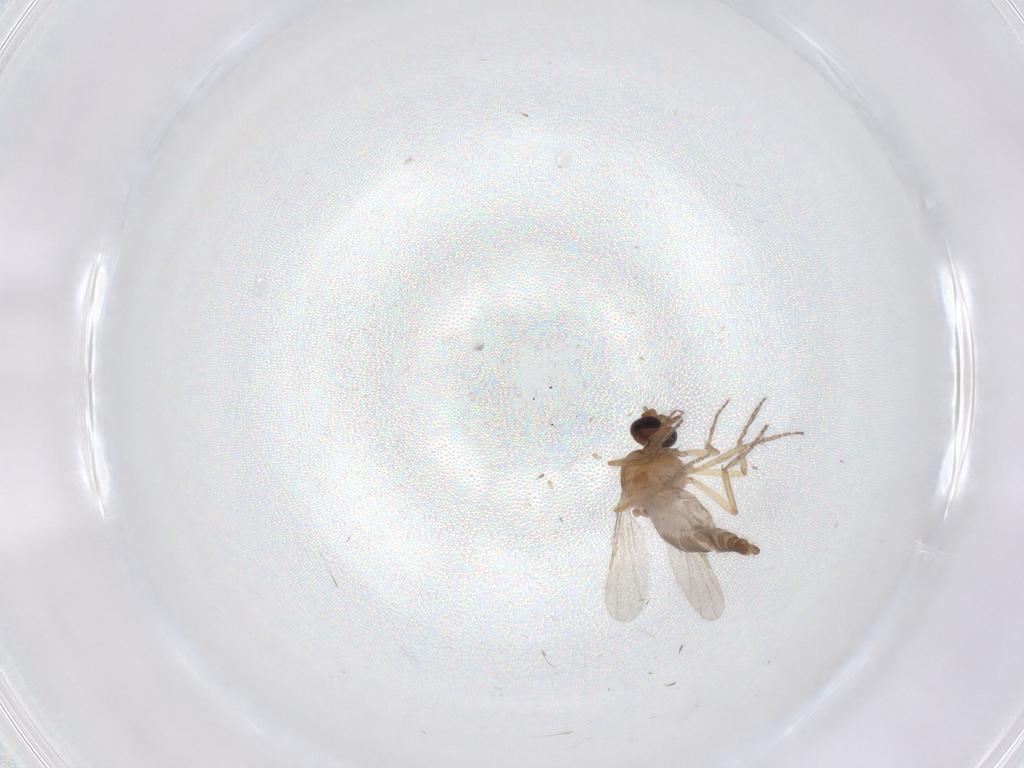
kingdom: Animalia
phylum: Arthropoda
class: Insecta
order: Diptera
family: Ceratopogonidae
